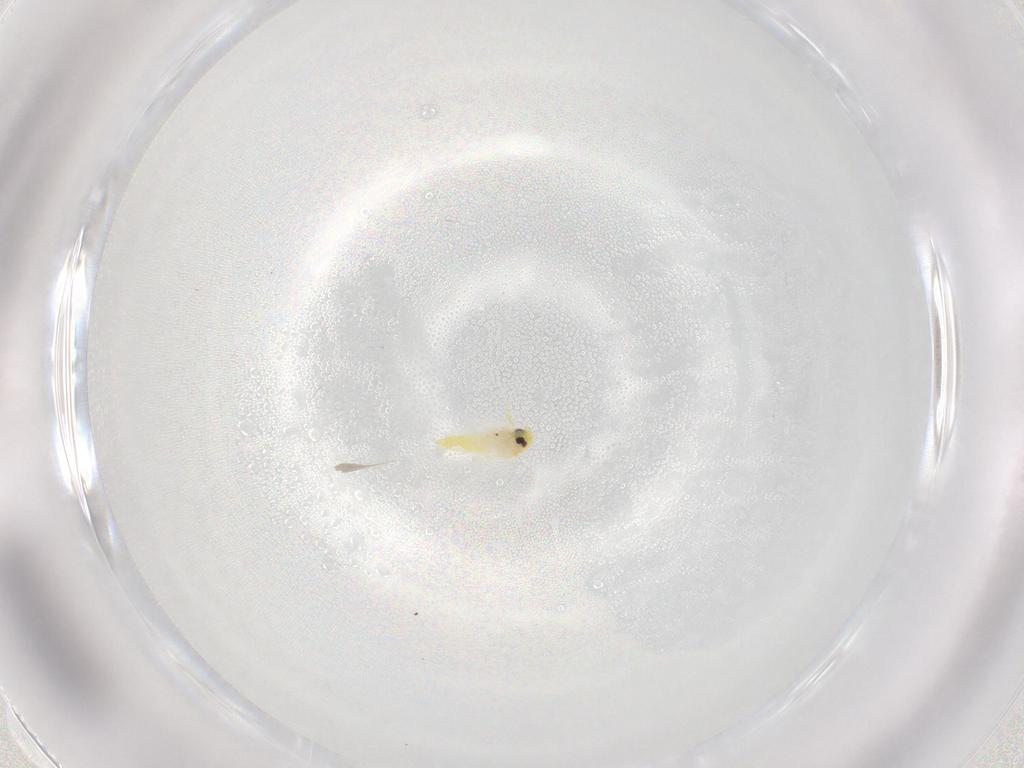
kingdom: Animalia
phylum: Arthropoda
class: Insecta
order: Hemiptera
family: Aleyrodidae
